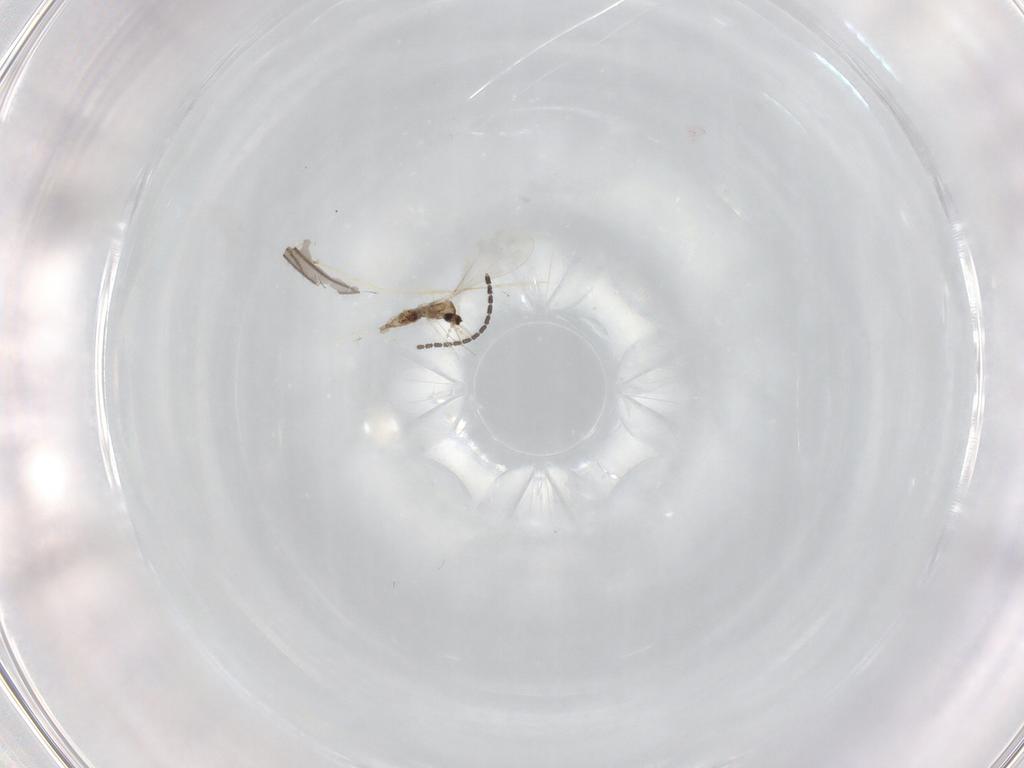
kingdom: Animalia
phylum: Arthropoda
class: Insecta
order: Diptera
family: Cecidomyiidae
